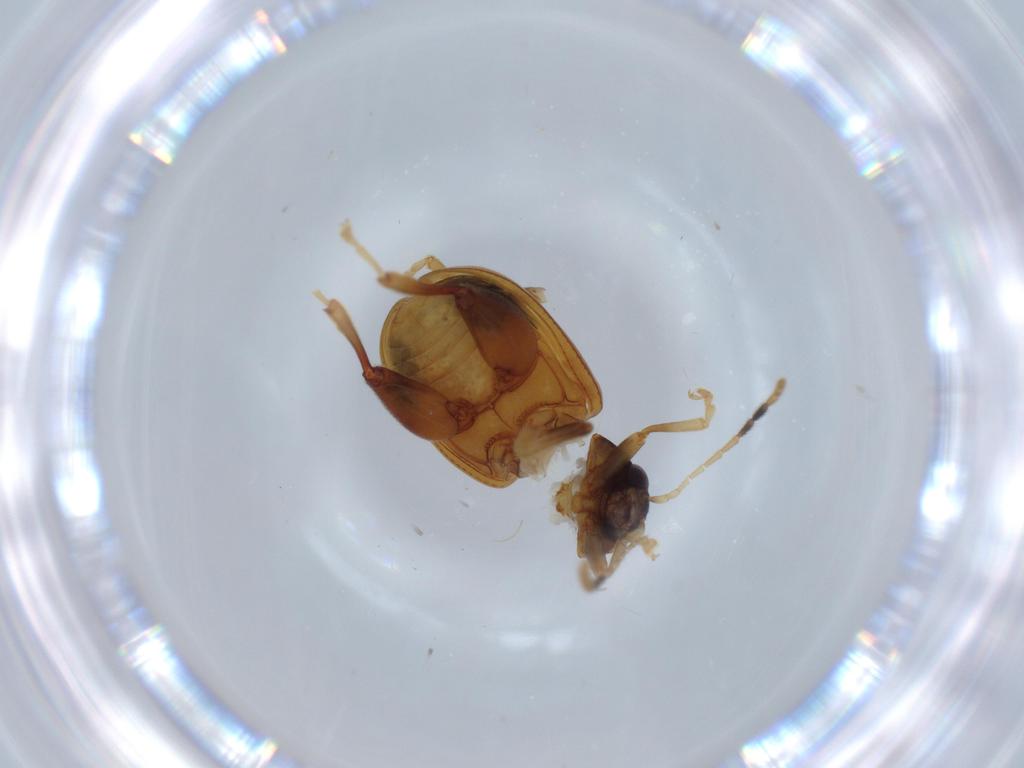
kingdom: Animalia
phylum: Arthropoda
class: Insecta
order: Coleoptera
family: Chrysomelidae
